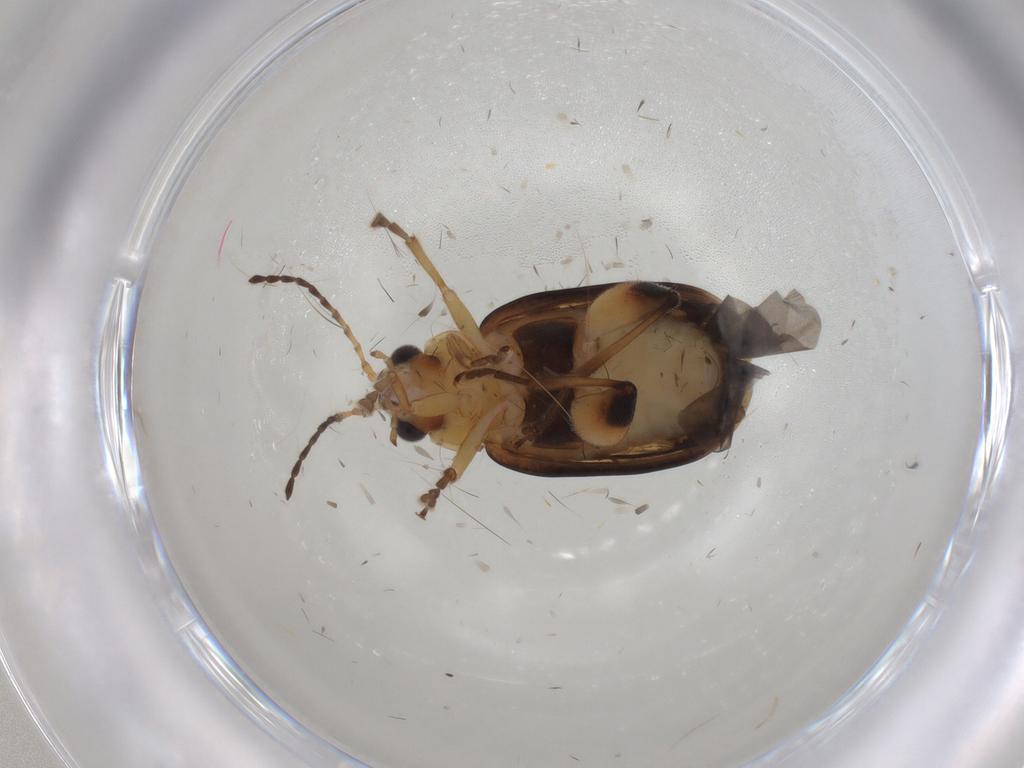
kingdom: Animalia
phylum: Arthropoda
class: Insecta
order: Coleoptera
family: Chrysomelidae
